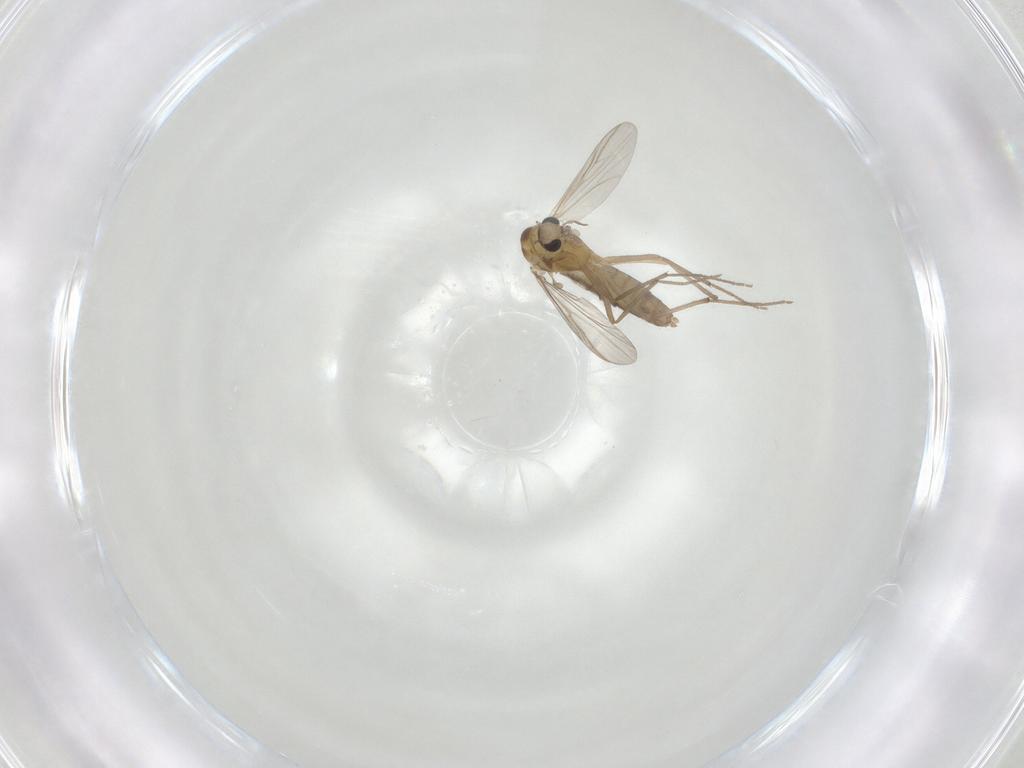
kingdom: Animalia
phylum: Arthropoda
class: Insecta
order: Diptera
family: Chironomidae
